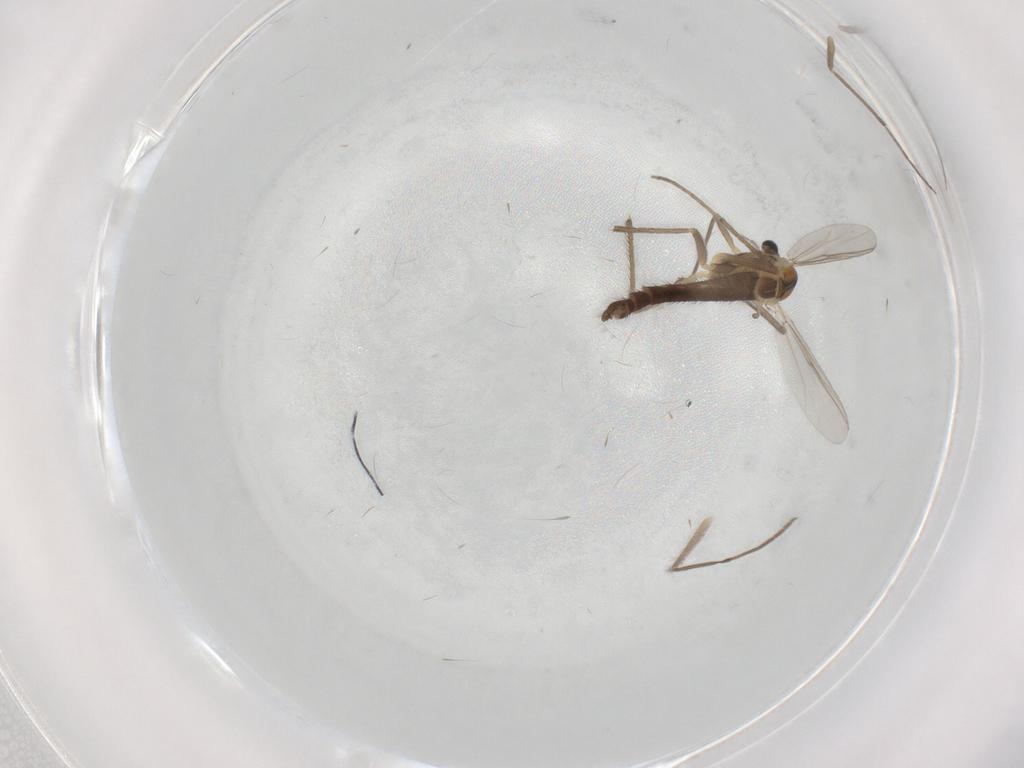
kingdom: Animalia
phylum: Arthropoda
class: Insecta
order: Diptera
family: Chironomidae
